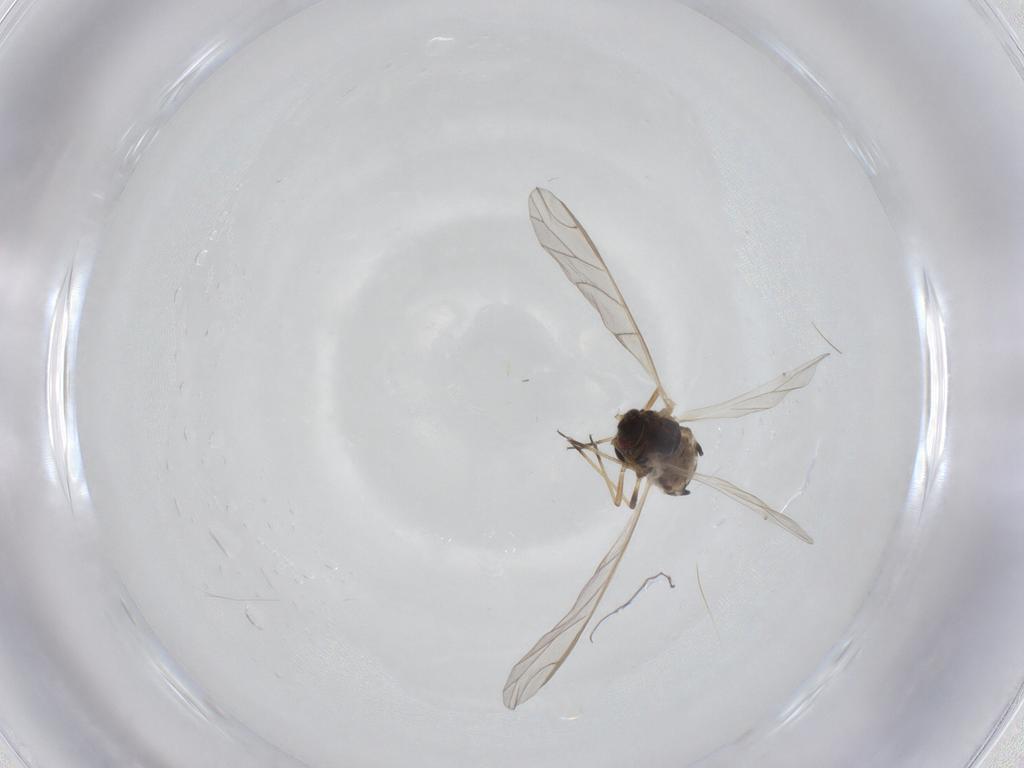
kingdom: Animalia
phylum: Arthropoda
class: Insecta
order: Hemiptera
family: Aphididae
